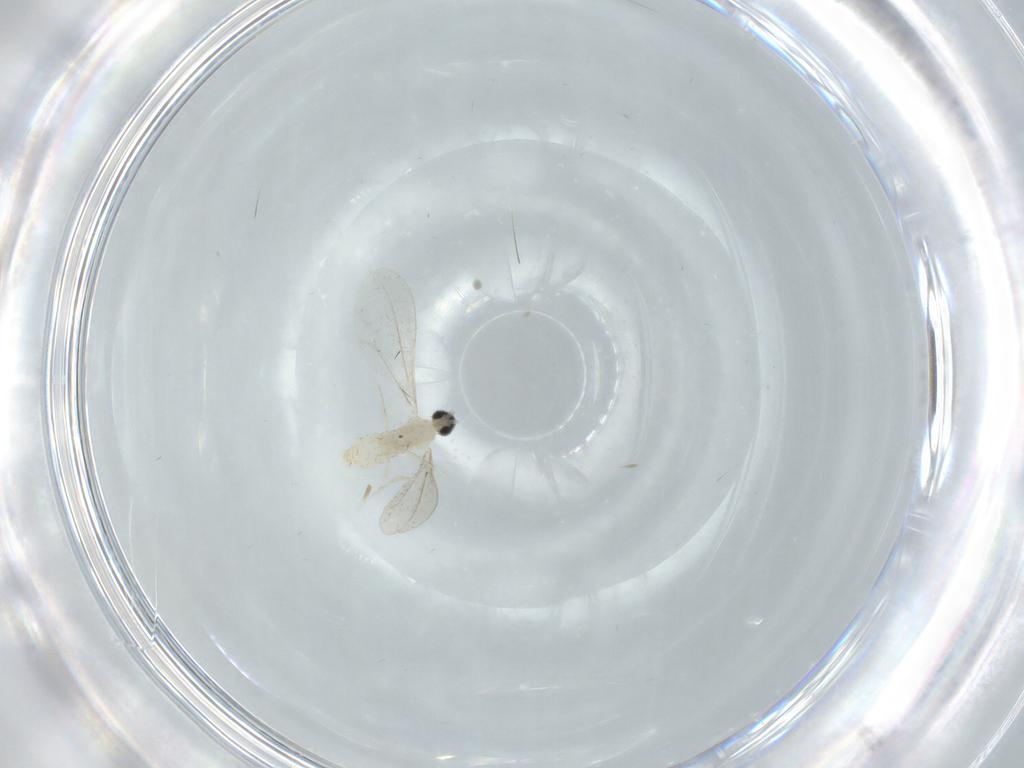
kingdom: Animalia
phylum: Arthropoda
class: Insecta
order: Diptera
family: Cecidomyiidae
